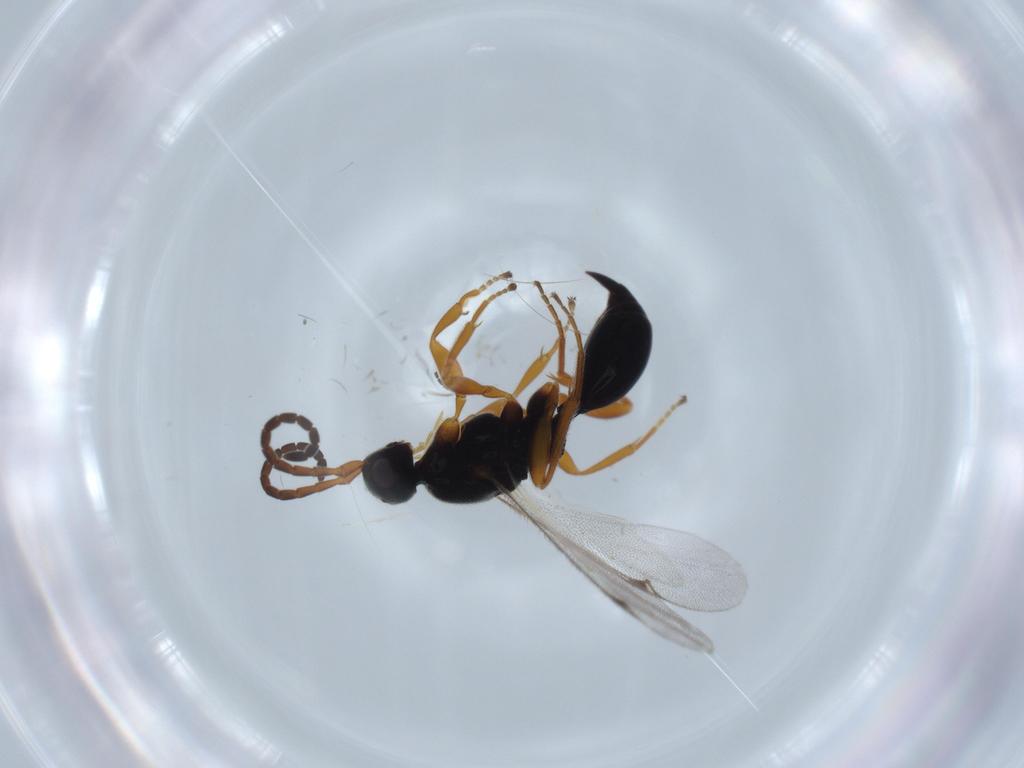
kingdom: Animalia
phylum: Arthropoda
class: Insecta
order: Hymenoptera
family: Proctotrupidae
